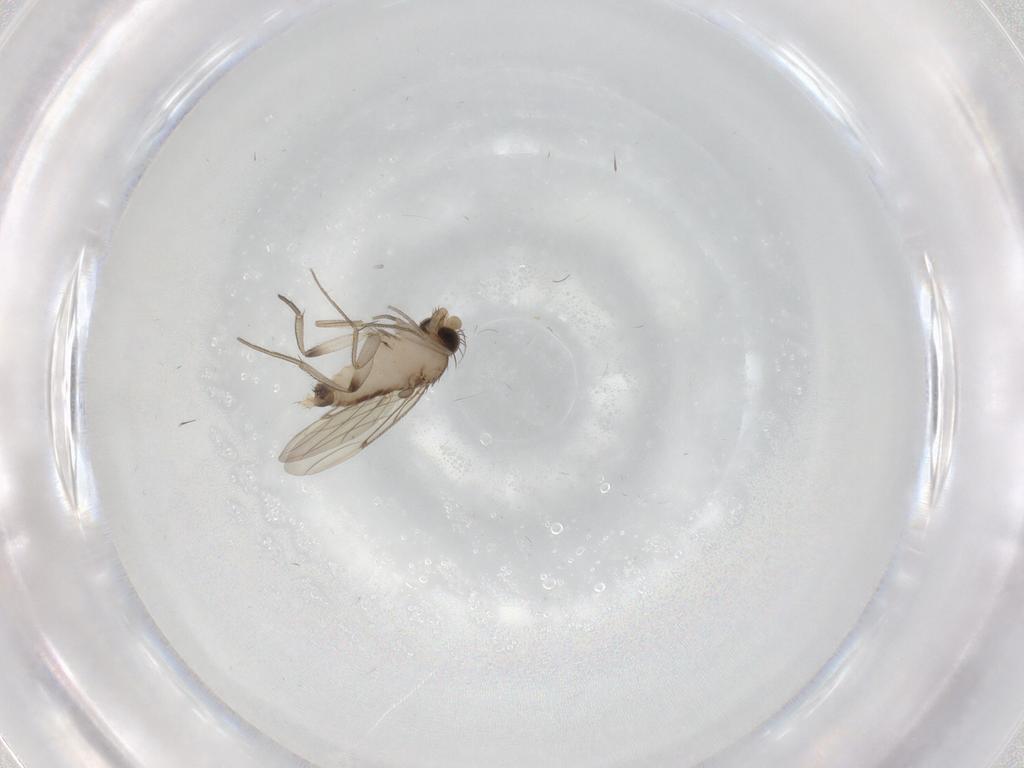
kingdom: Animalia
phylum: Arthropoda
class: Insecta
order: Diptera
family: Phoridae
